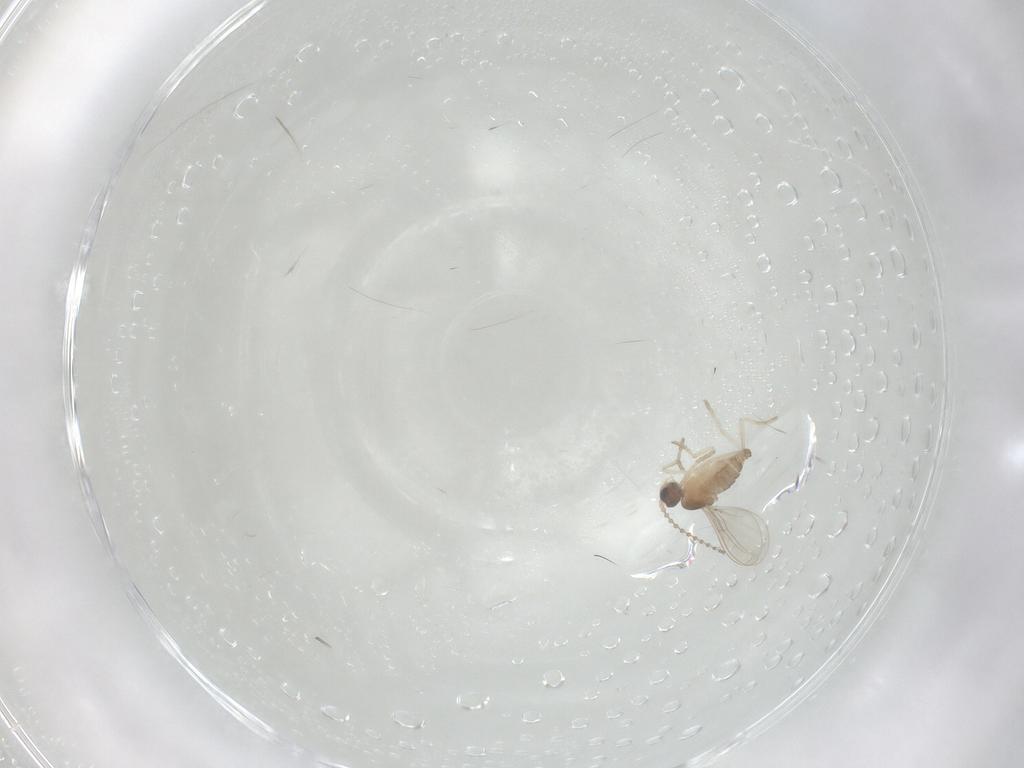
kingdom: Animalia
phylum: Arthropoda
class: Insecta
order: Diptera
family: Cecidomyiidae
